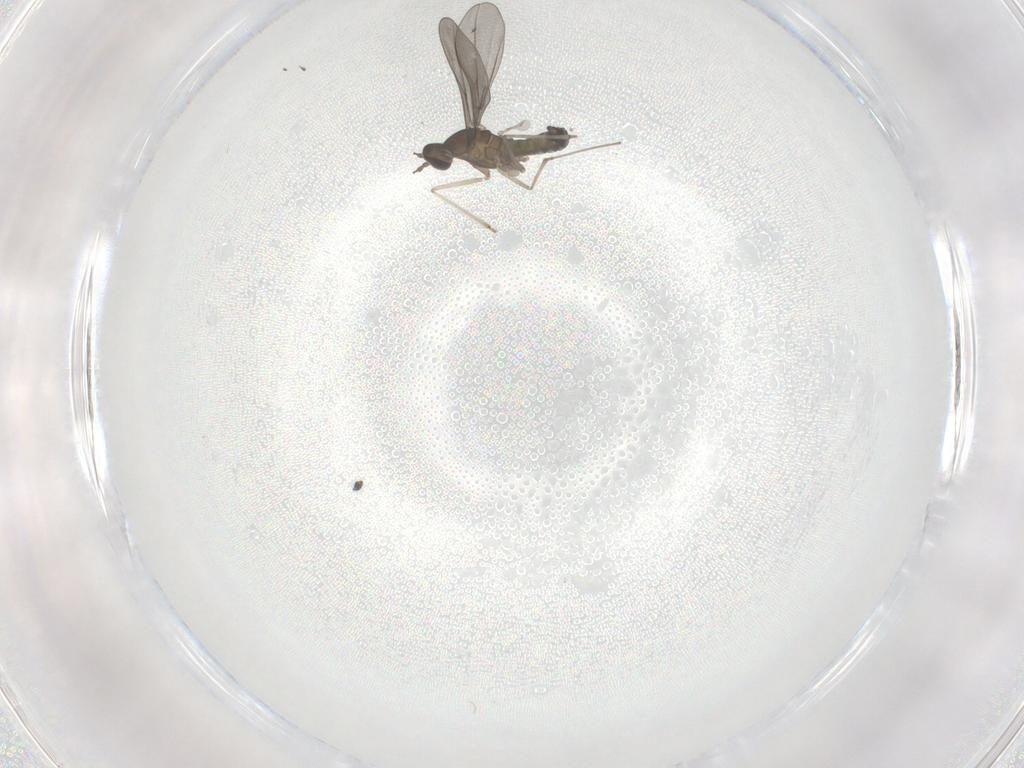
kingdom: Animalia
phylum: Arthropoda
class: Insecta
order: Diptera
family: Cecidomyiidae
